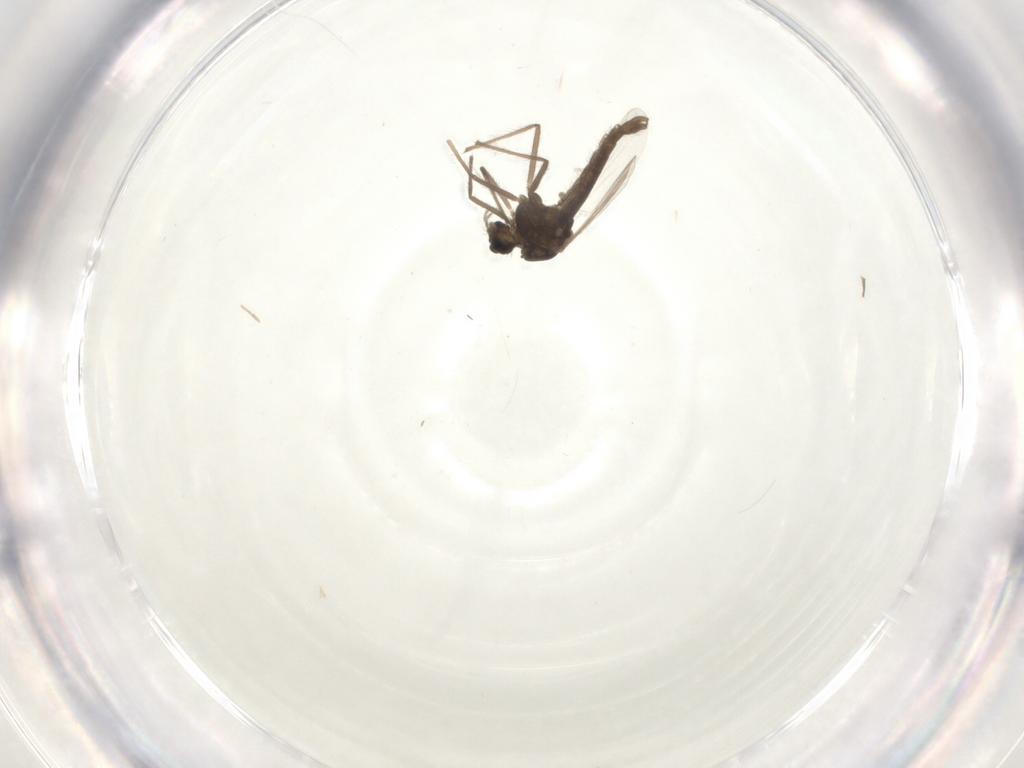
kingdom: Animalia
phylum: Arthropoda
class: Insecta
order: Diptera
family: Chironomidae
